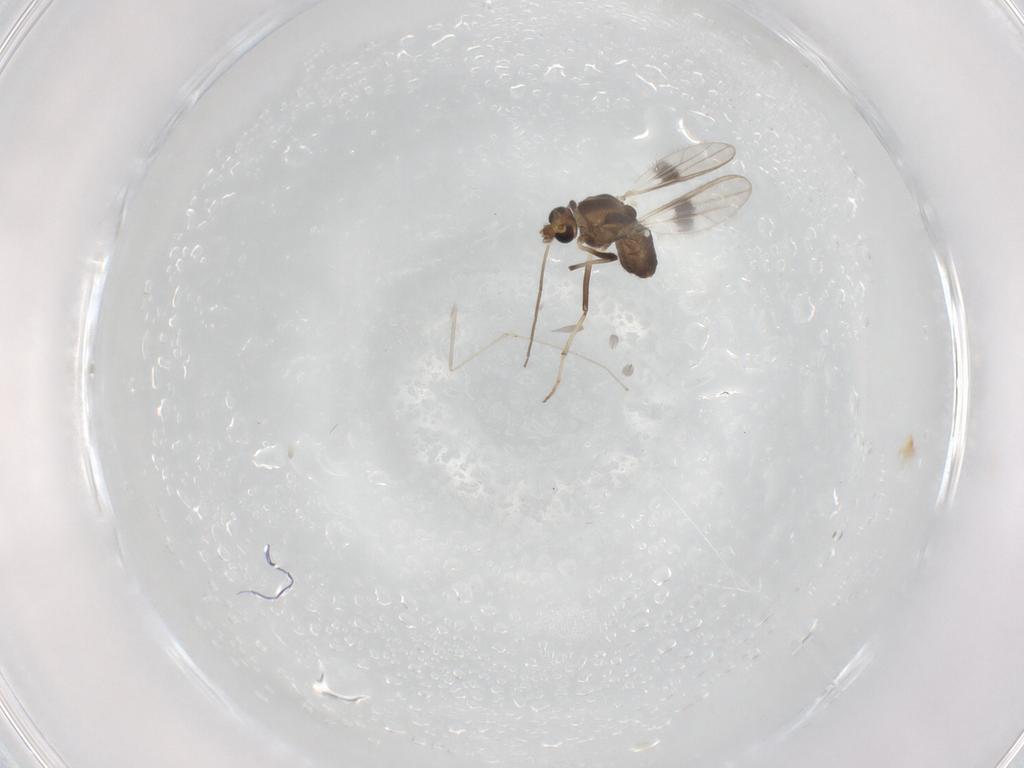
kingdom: Animalia
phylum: Arthropoda
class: Insecta
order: Diptera
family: Chironomidae
